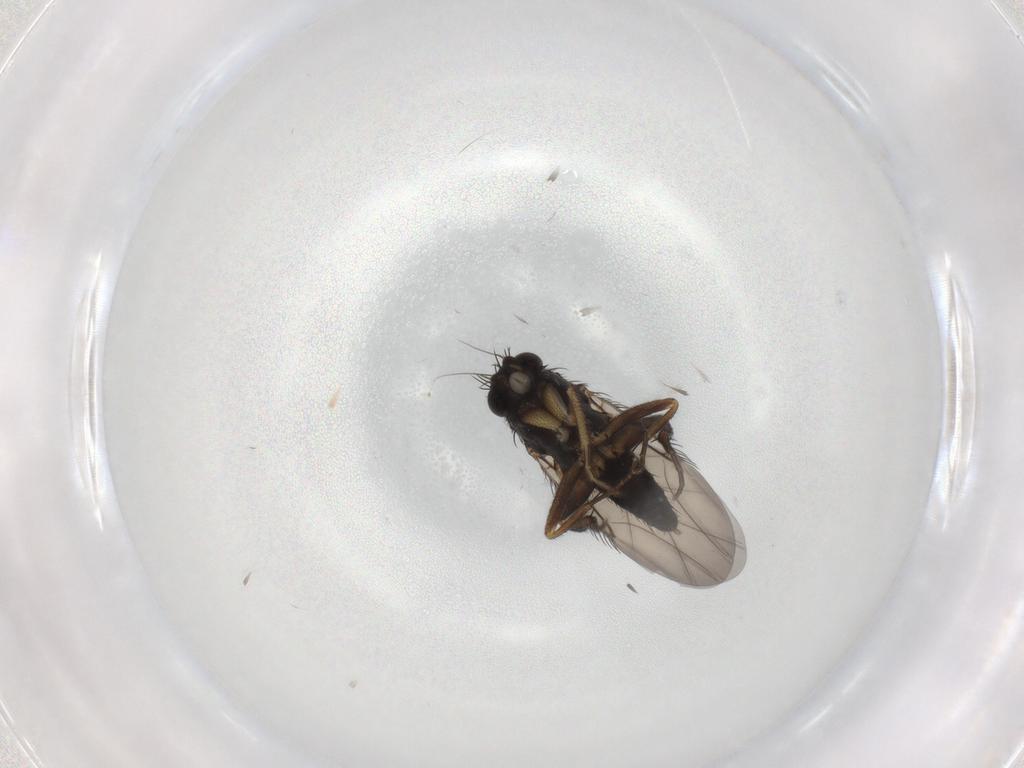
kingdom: Animalia
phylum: Arthropoda
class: Insecta
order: Diptera
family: Phoridae
